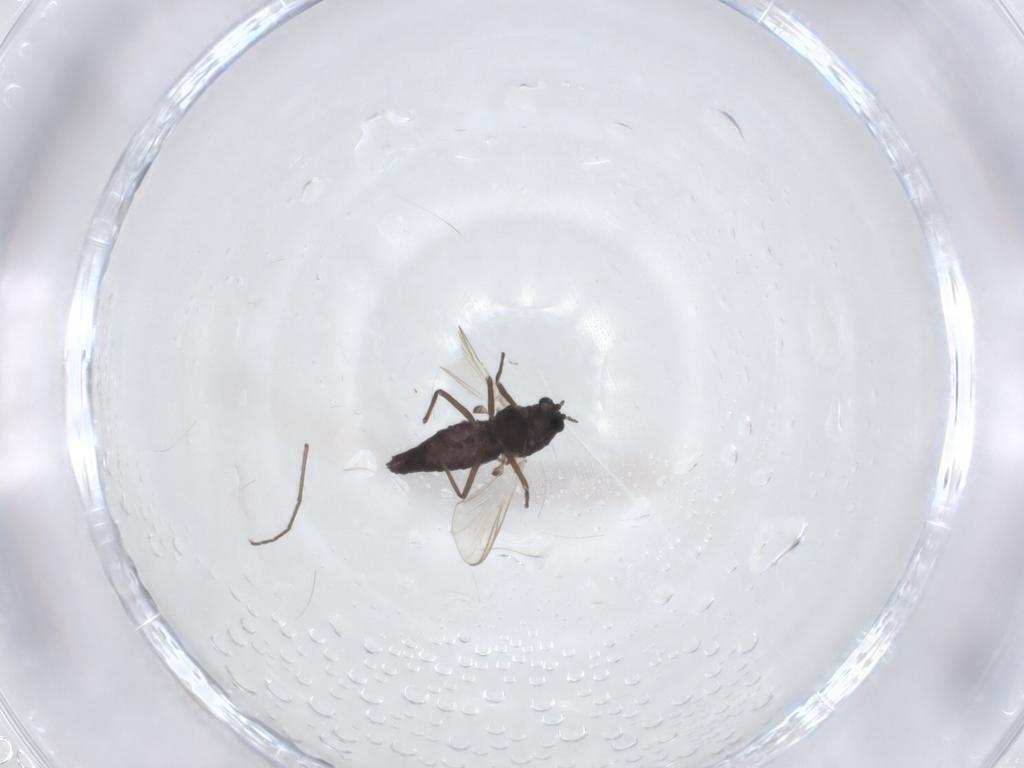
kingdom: Animalia
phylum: Arthropoda
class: Insecta
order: Diptera
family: Chironomidae
